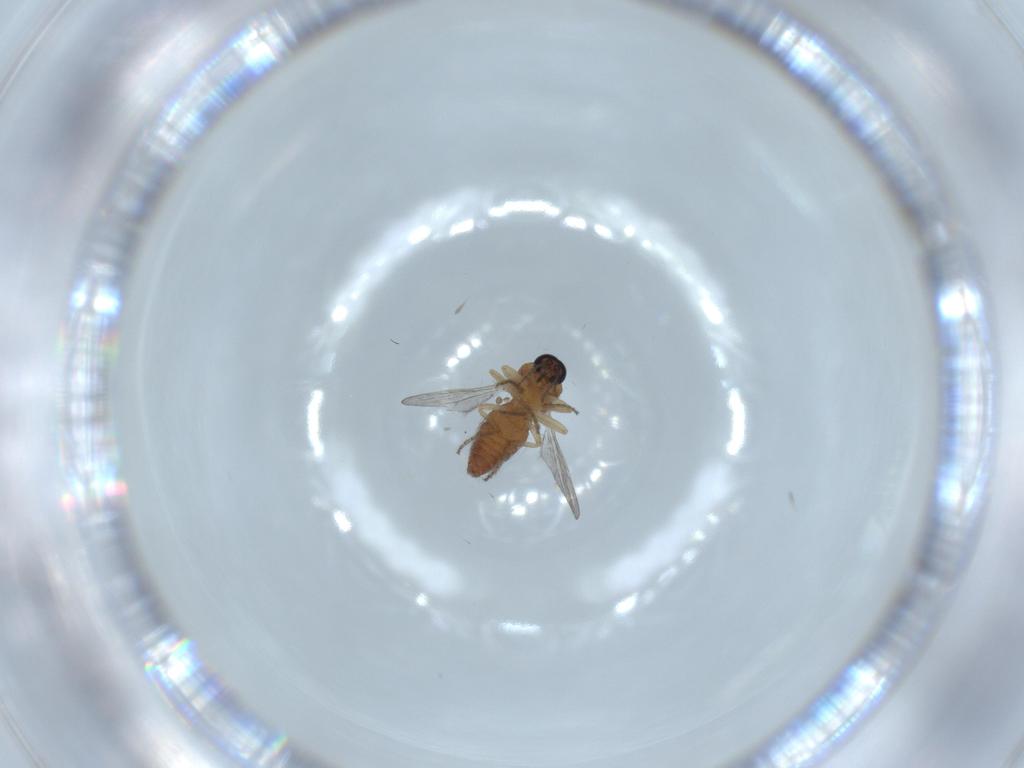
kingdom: Animalia
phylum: Arthropoda
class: Insecta
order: Diptera
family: Ceratopogonidae
